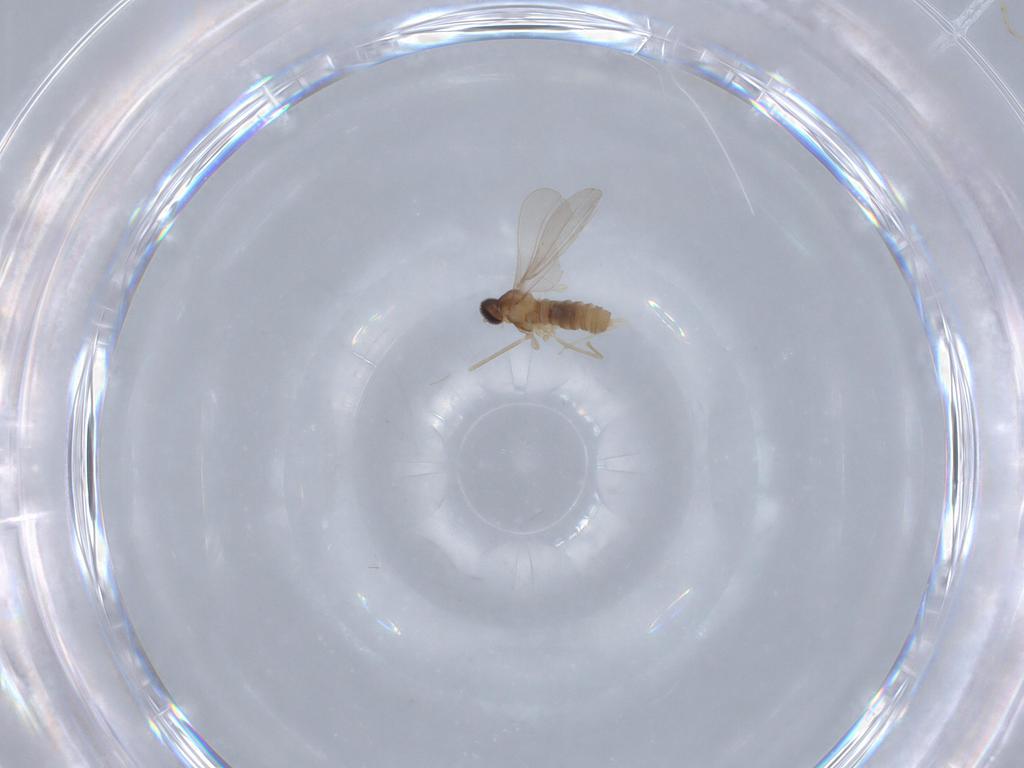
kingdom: Animalia
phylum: Arthropoda
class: Insecta
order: Diptera
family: Cecidomyiidae
